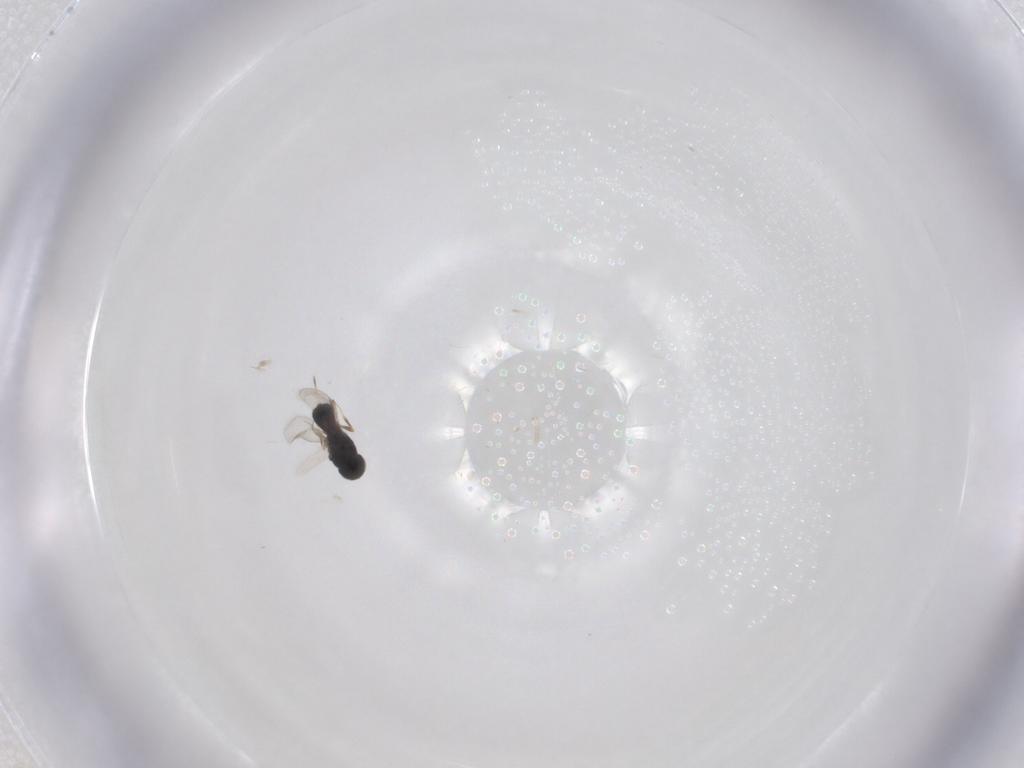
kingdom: Animalia
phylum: Arthropoda
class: Insecta
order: Hymenoptera
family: Scelionidae
